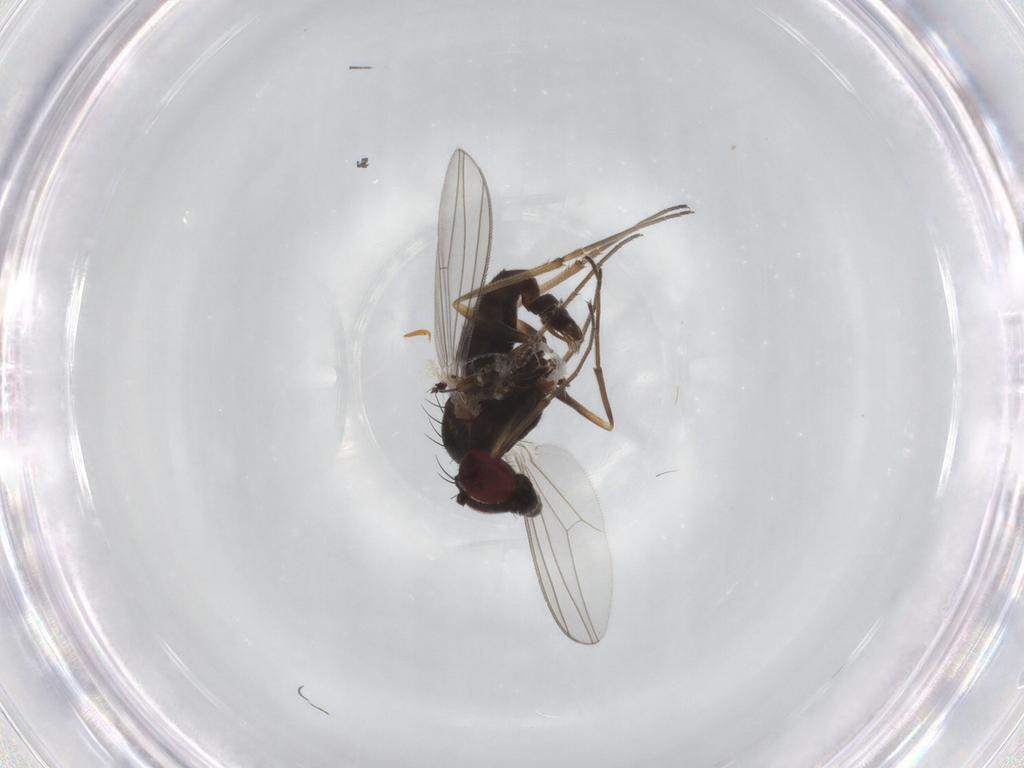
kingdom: Animalia
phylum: Arthropoda
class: Insecta
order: Diptera
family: Dolichopodidae
